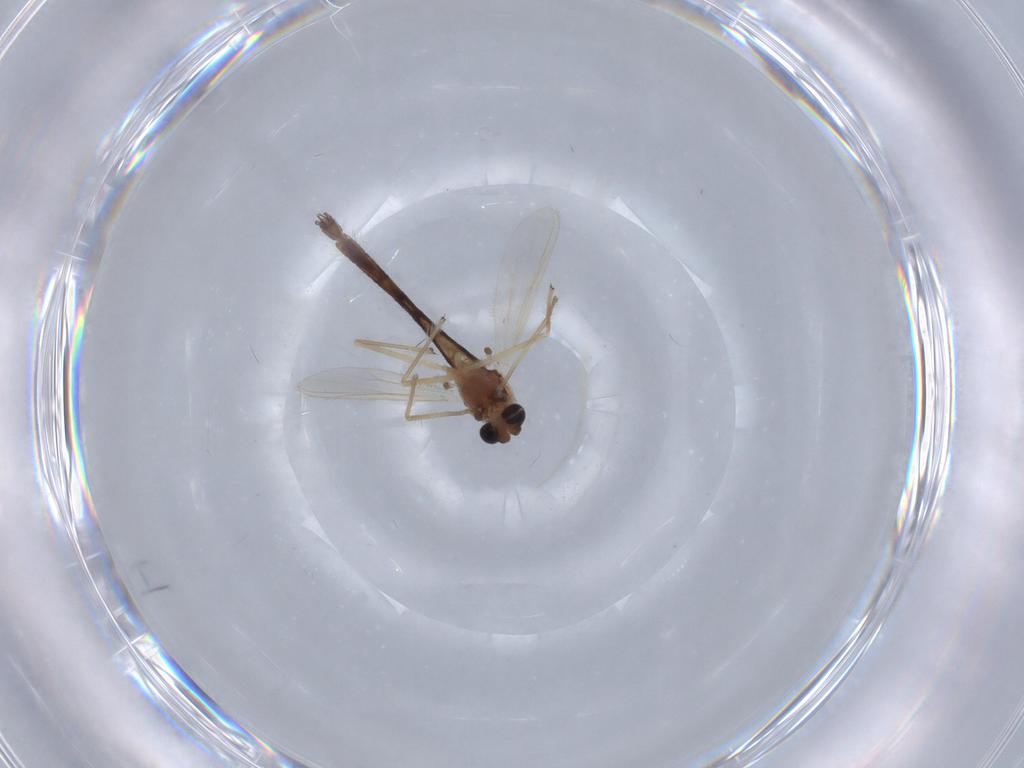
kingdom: Animalia
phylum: Arthropoda
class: Insecta
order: Diptera
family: Chironomidae
